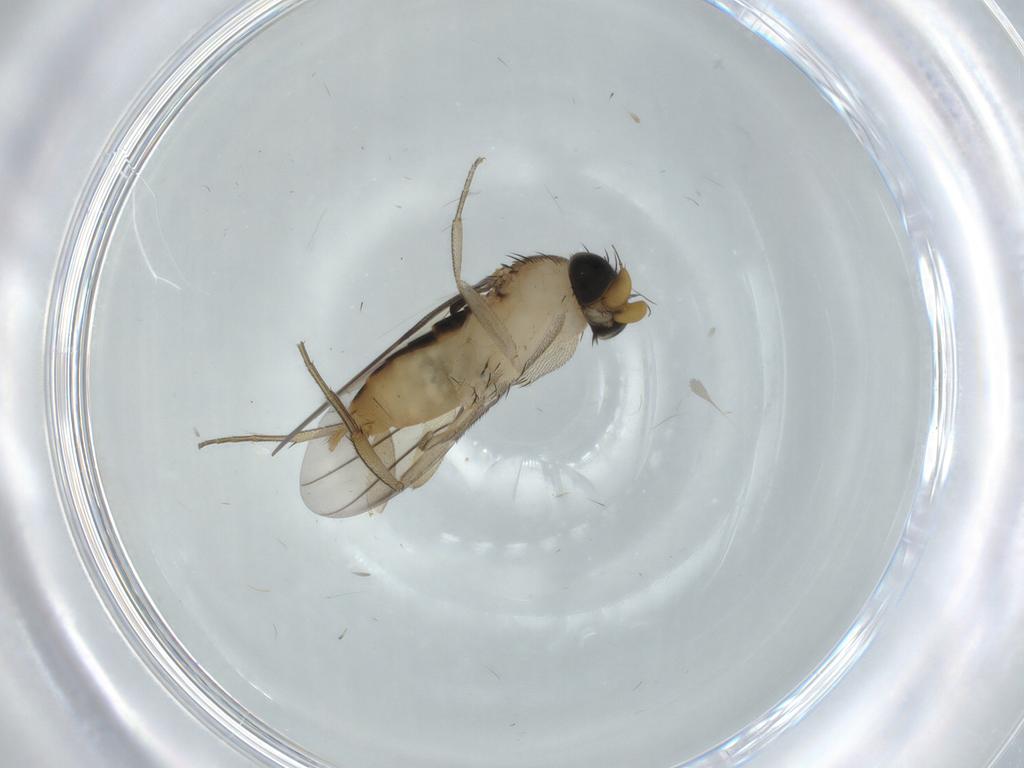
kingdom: Animalia
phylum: Arthropoda
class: Insecta
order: Diptera
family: Phoridae
